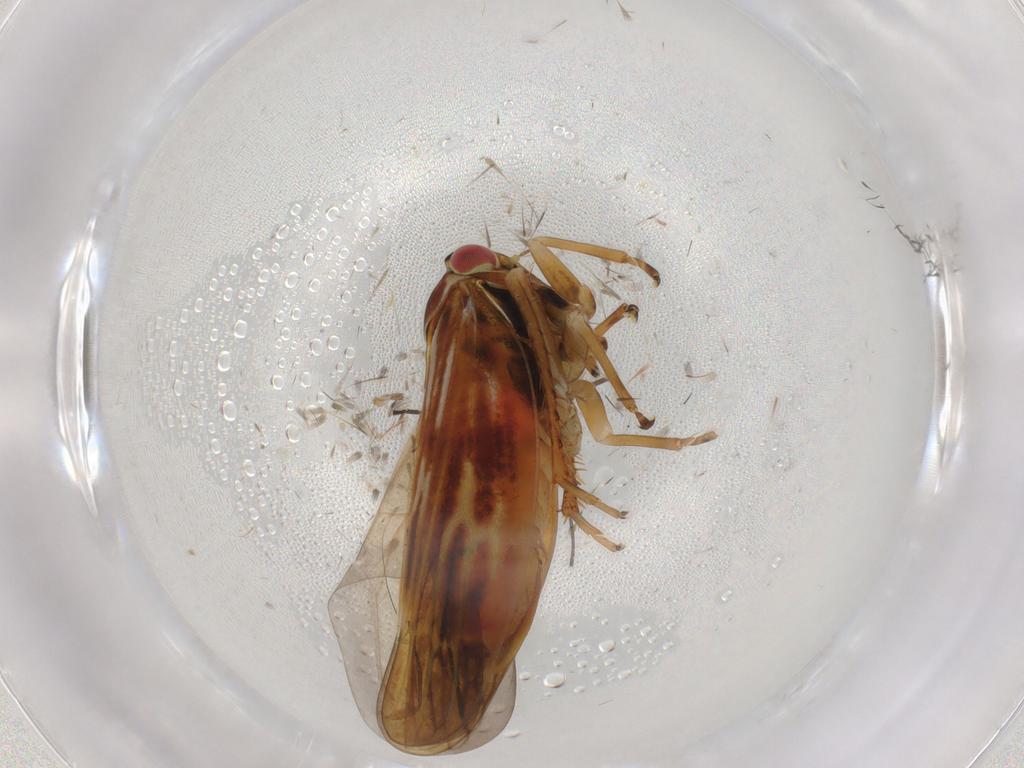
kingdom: Animalia
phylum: Arthropoda
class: Insecta
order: Hemiptera
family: Cicadellidae
